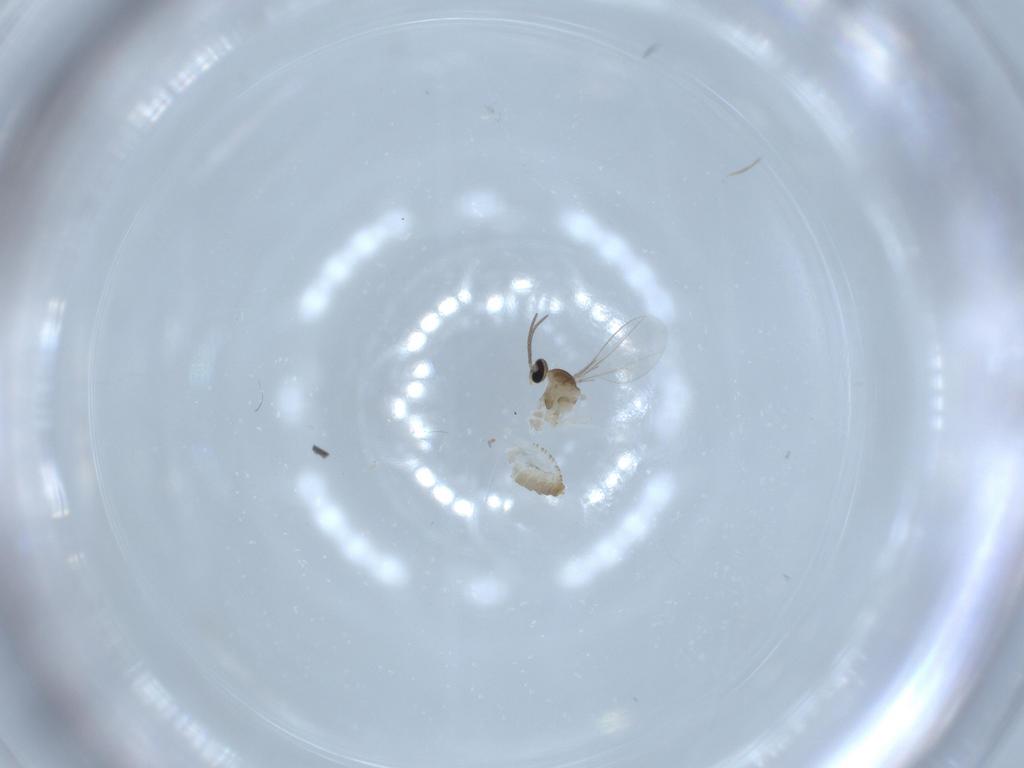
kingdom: Animalia
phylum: Arthropoda
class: Insecta
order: Diptera
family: Cecidomyiidae
